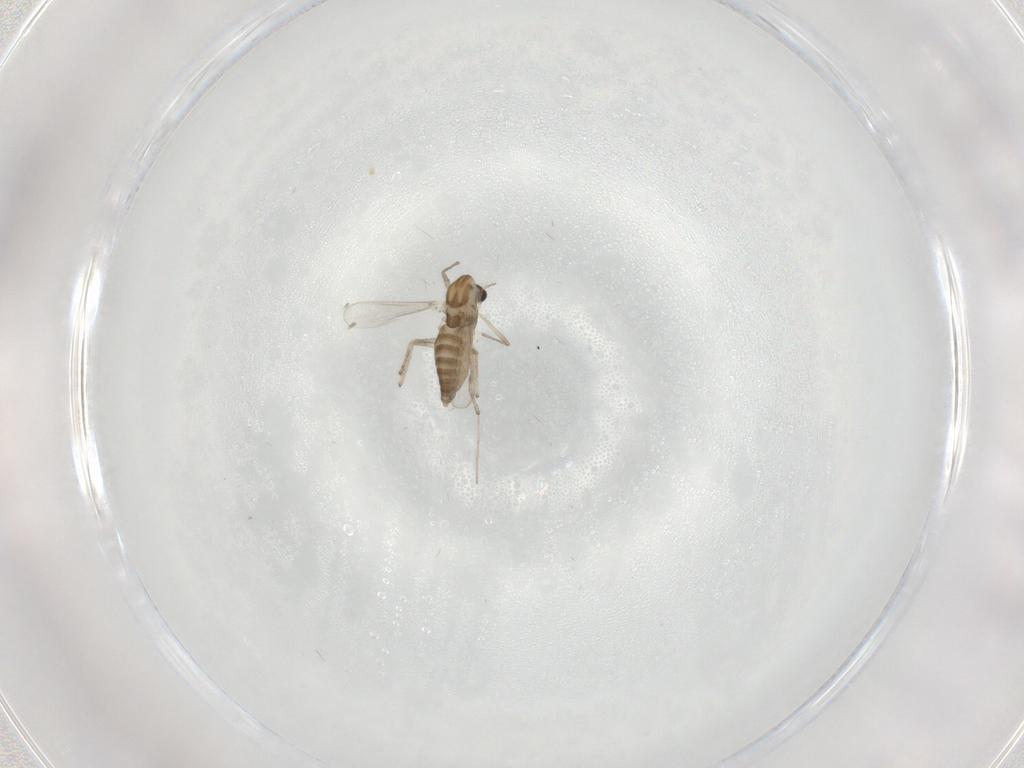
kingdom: Animalia
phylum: Arthropoda
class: Insecta
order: Diptera
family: Chironomidae
